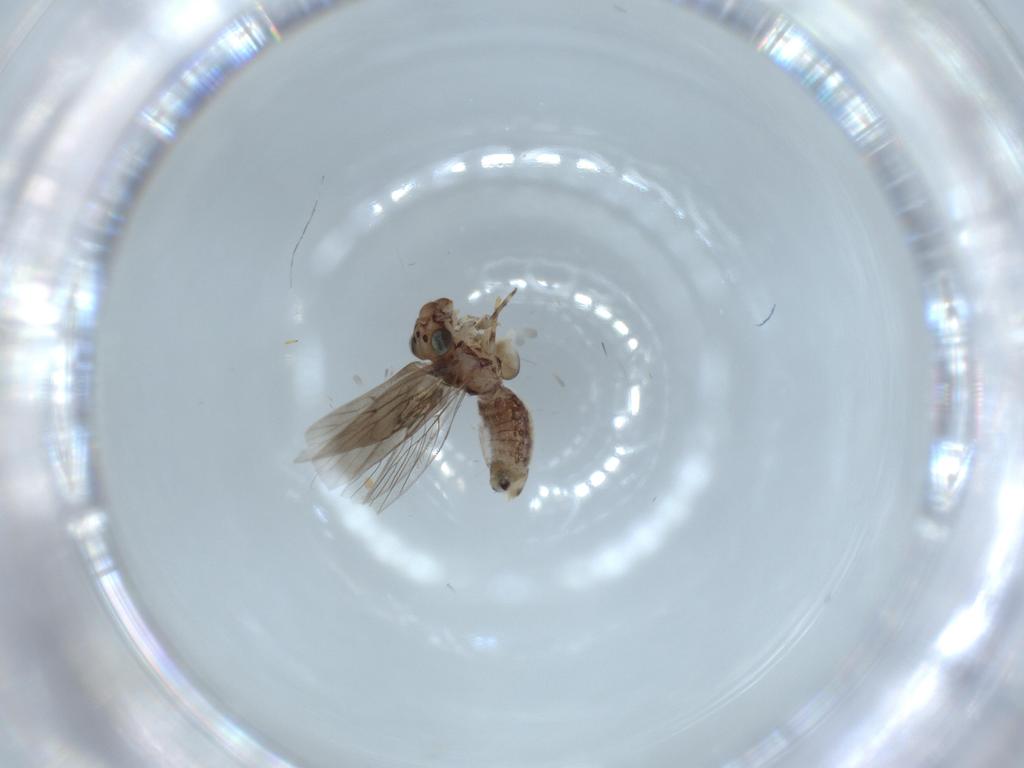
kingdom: Animalia
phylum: Arthropoda
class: Insecta
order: Psocodea
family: Lepidopsocidae
